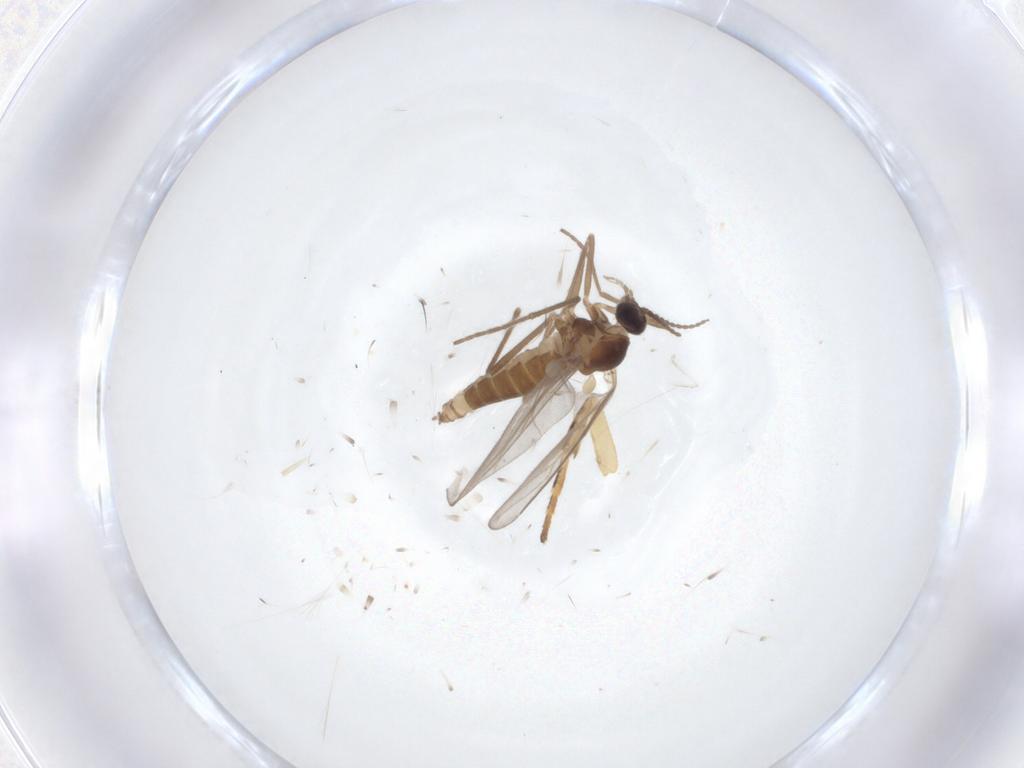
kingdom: Animalia
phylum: Arthropoda
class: Insecta
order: Diptera
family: Cecidomyiidae
